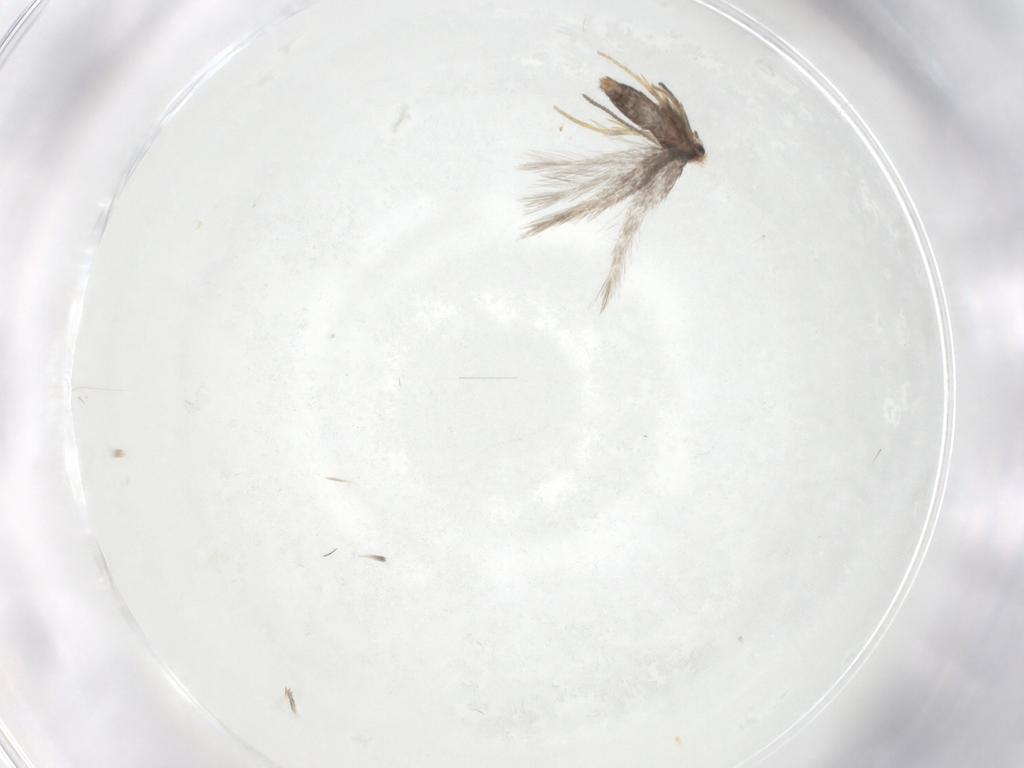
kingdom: Animalia
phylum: Arthropoda
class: Insecta
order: Lepidoptera
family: Nepticulidae
